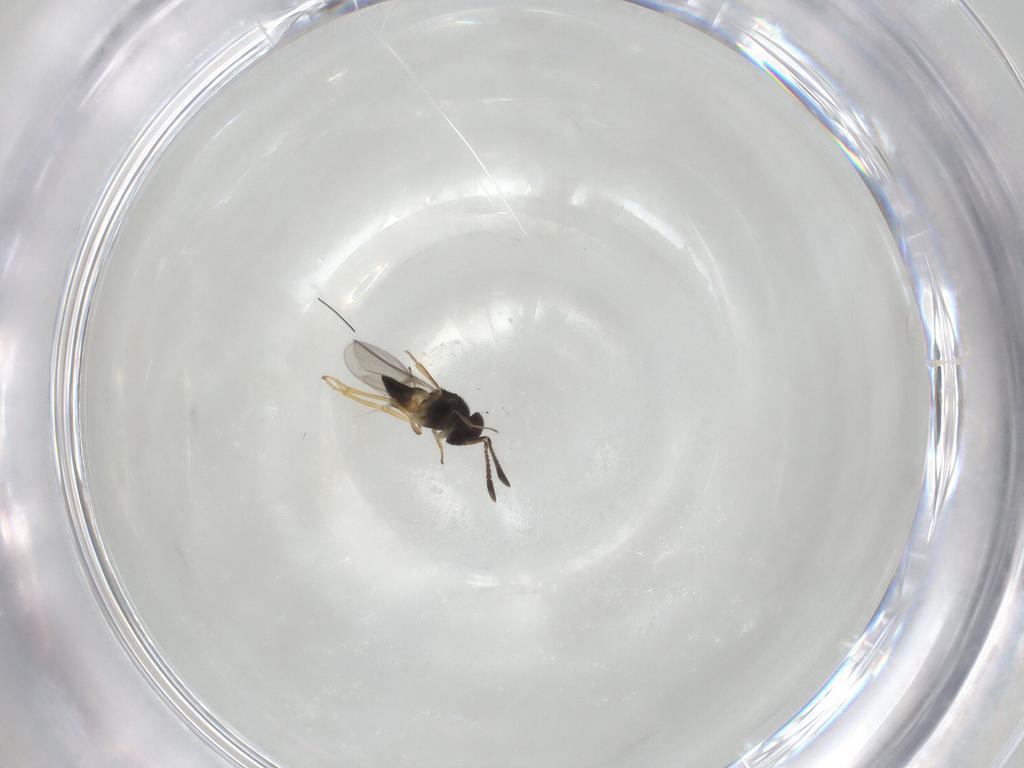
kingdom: Animalia
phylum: Arthropoda
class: Insecta
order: Hymenoptera
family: Encyrtidae
